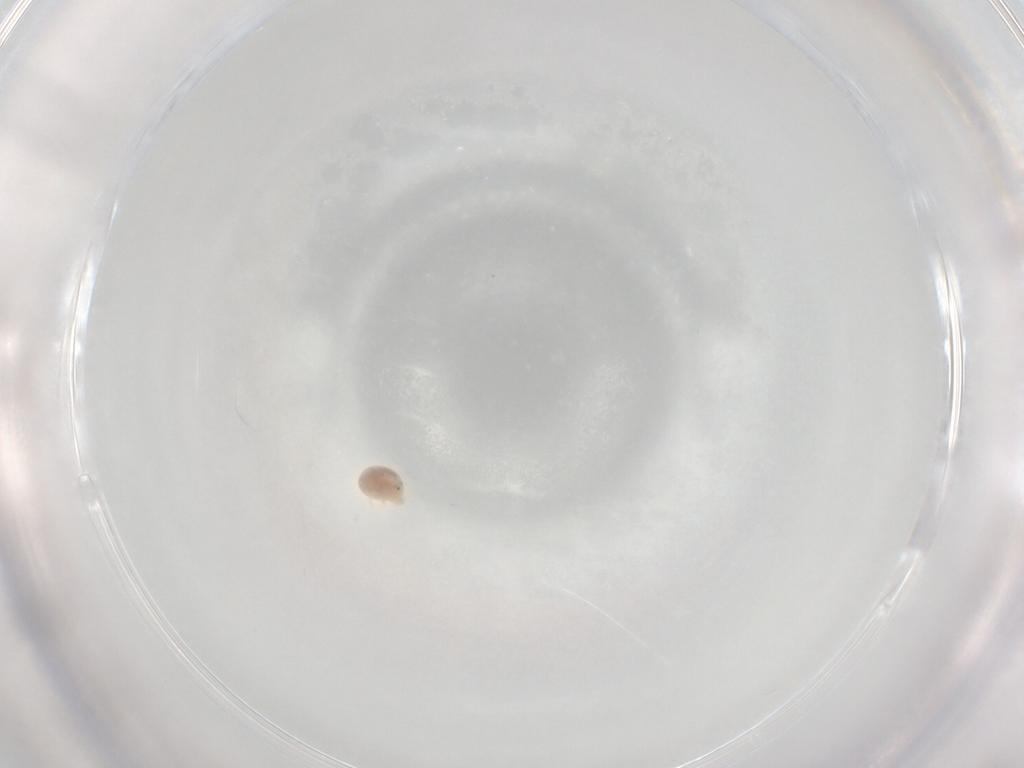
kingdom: Animalia
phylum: Arthropoda
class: Arachnida
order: Trombidiformes
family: Hydryphantidae
